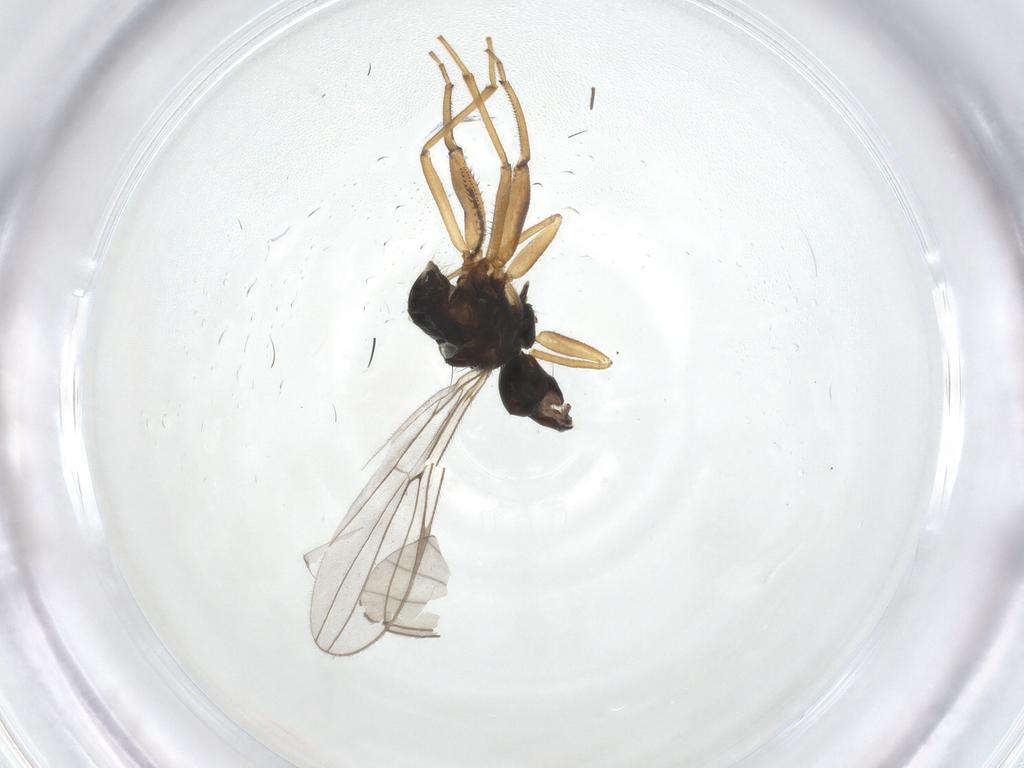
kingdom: Animalia
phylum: Arthropoda
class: Insecta
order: Diptera
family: Hybotidae
